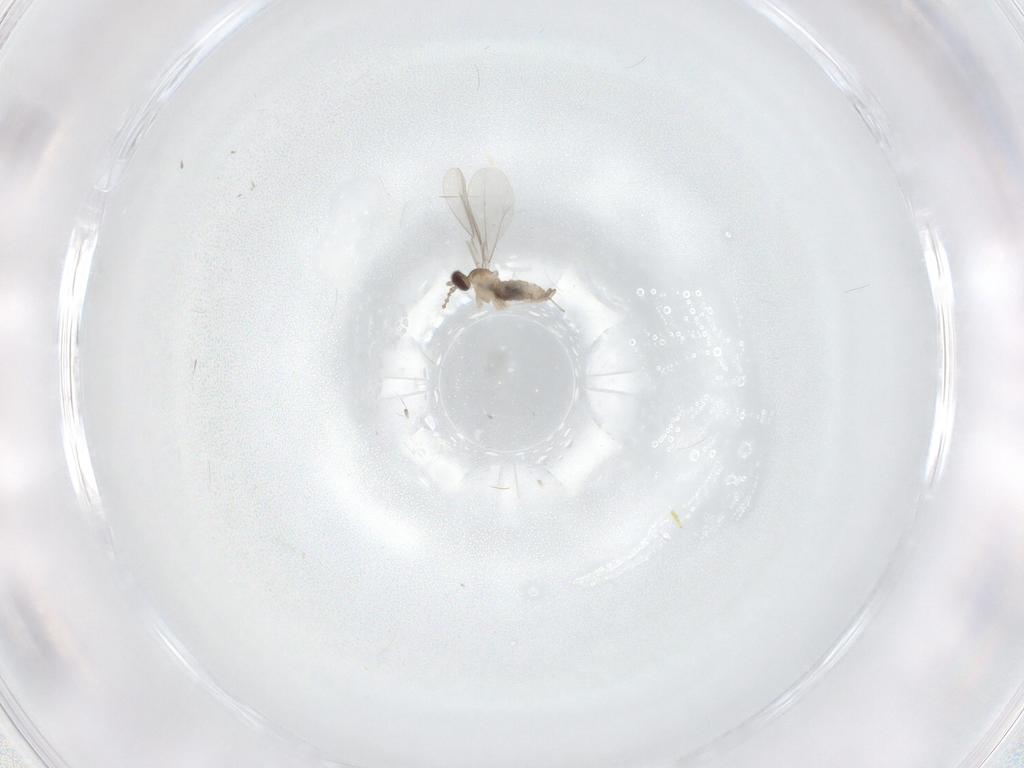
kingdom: Animalia
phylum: Arthropoda
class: Insecta
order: Diptera
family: Cecidomyiidae
